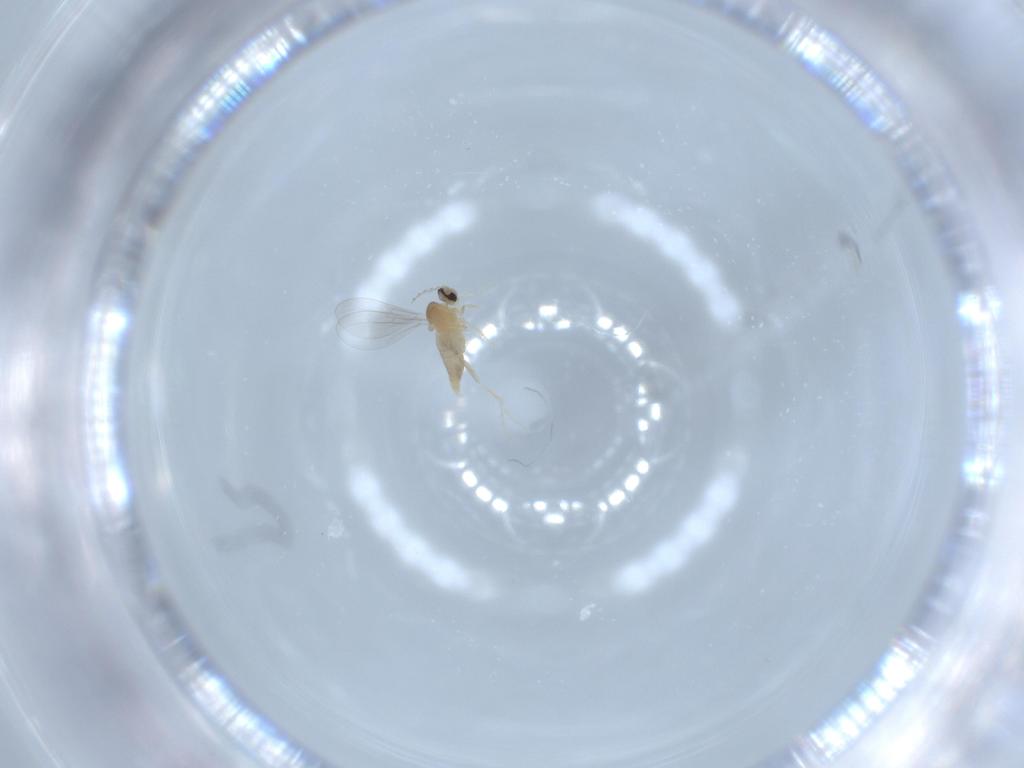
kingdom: Animalia
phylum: Arthropoda
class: Insecta
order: Diptera
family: Cecidomyiidae
